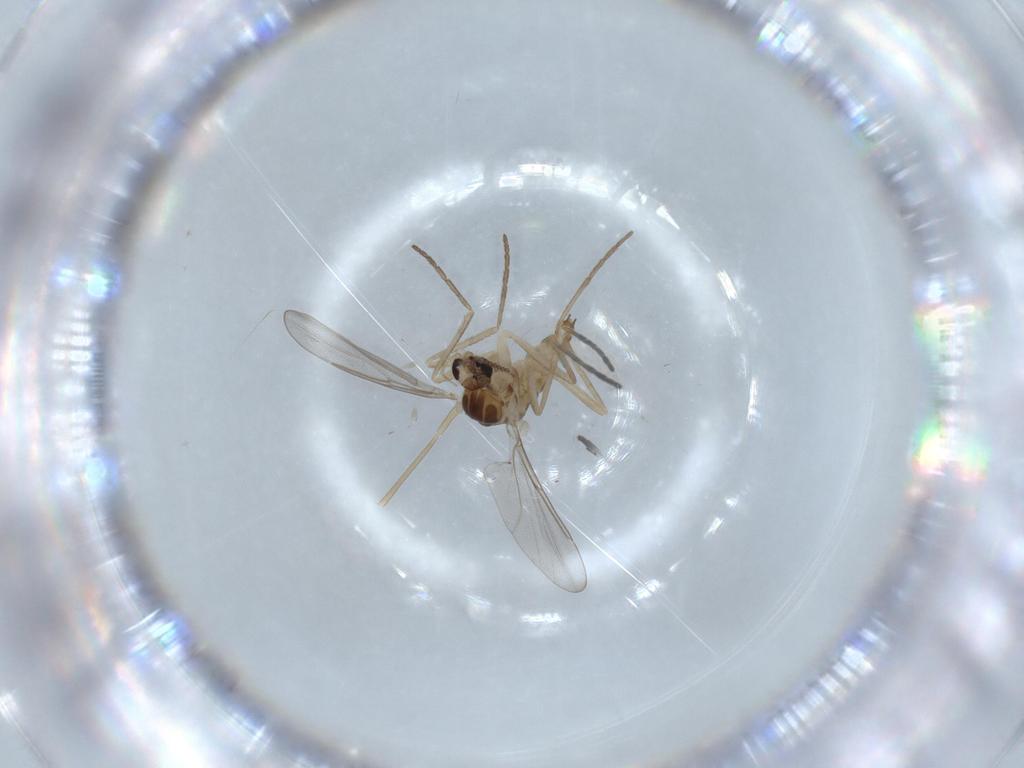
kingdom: Animalia
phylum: Arthropoda
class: Insecta
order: Diptera
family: Cecidomyiidae
